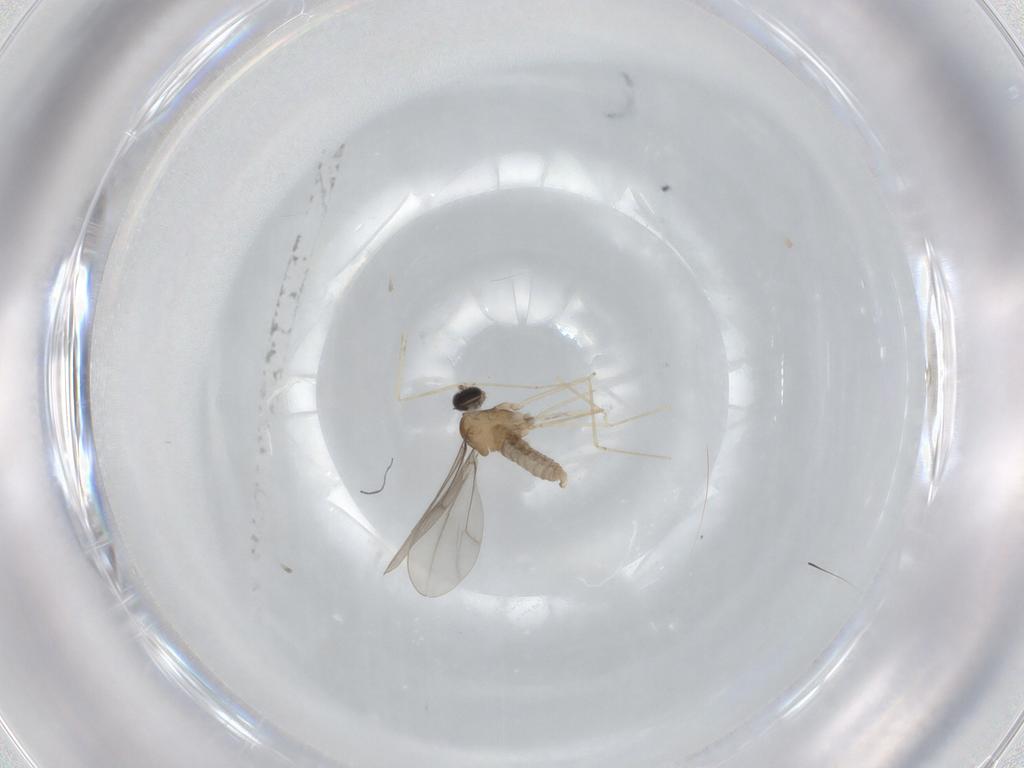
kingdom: Animalia
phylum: Arthropoda
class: Insecta
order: Diptera
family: Cecidomyiidae
